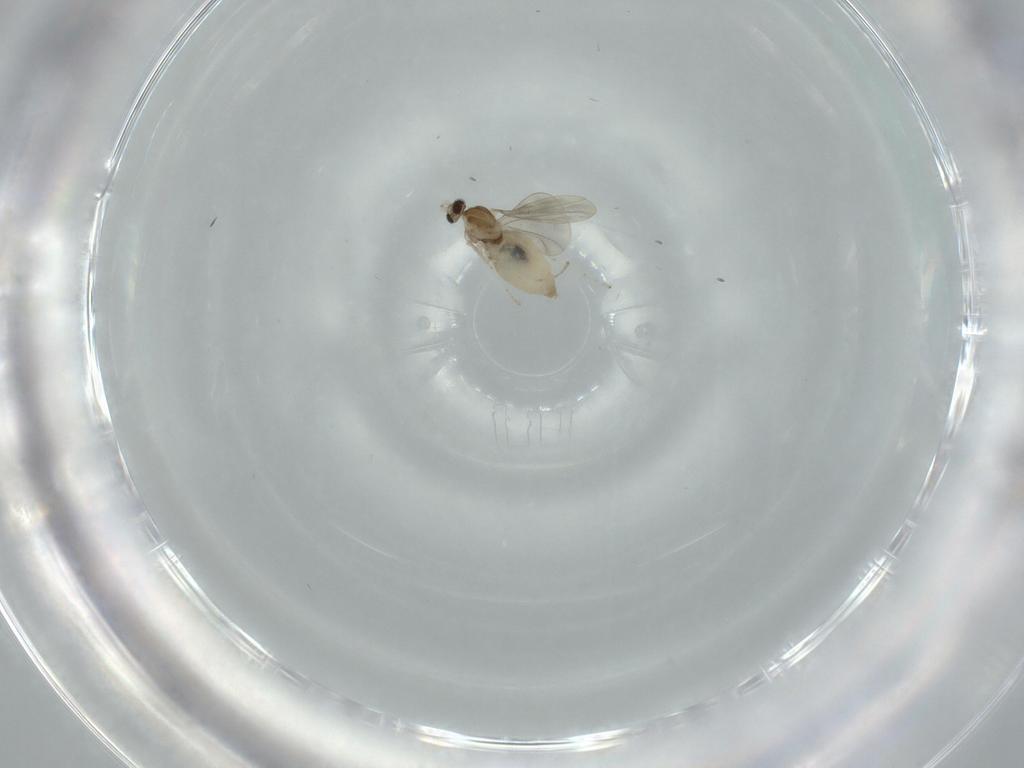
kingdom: Animalia
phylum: Arthropoda
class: Insecta
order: Diptera
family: Cecidomyiidae
